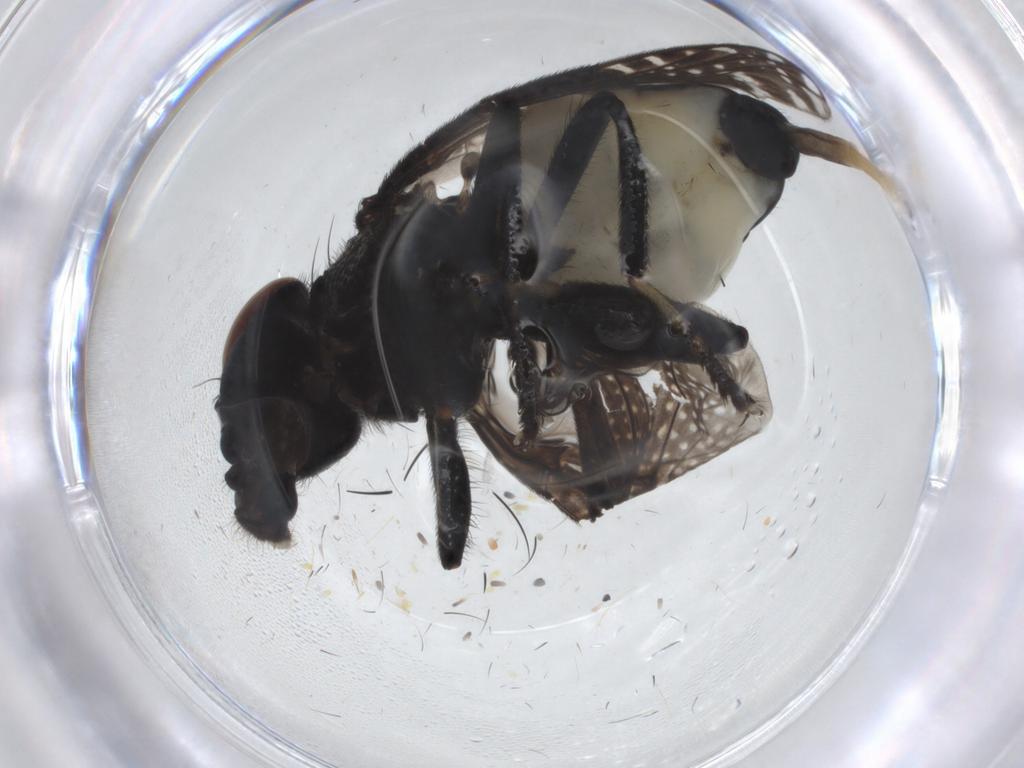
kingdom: Animalia
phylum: Arthropoda
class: Insecta
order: Diptera
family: Platystomatidae
